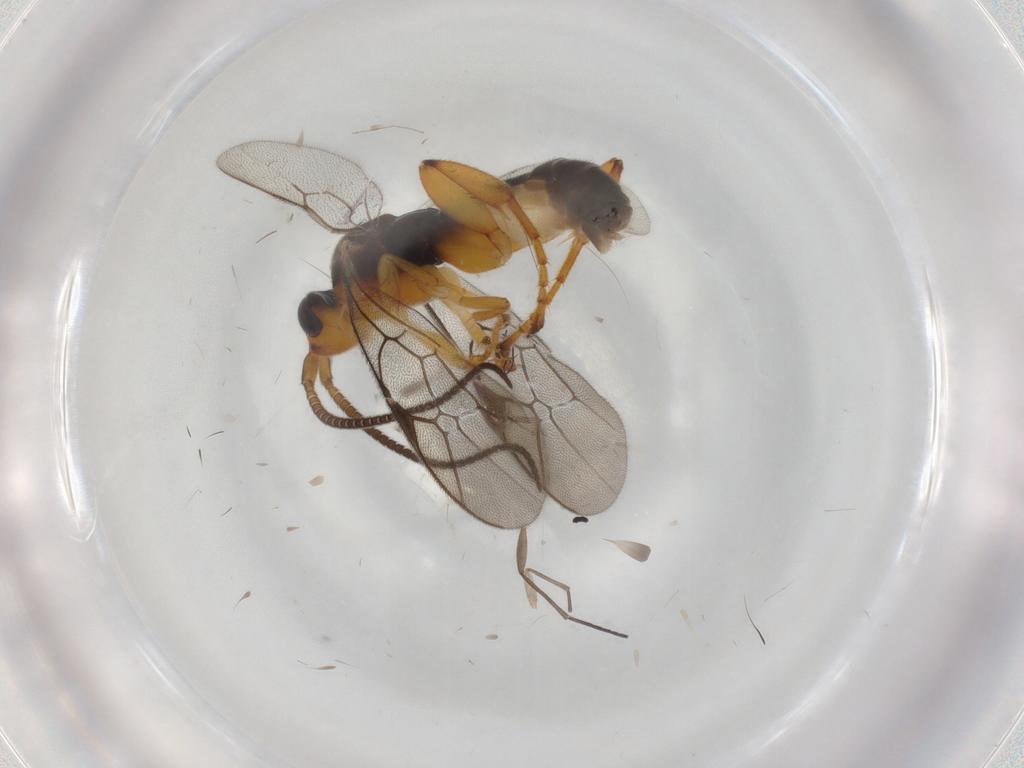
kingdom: Animalia
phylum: Arthropoda
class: Insecta
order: Hymenoptera
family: Ichneumonidae
